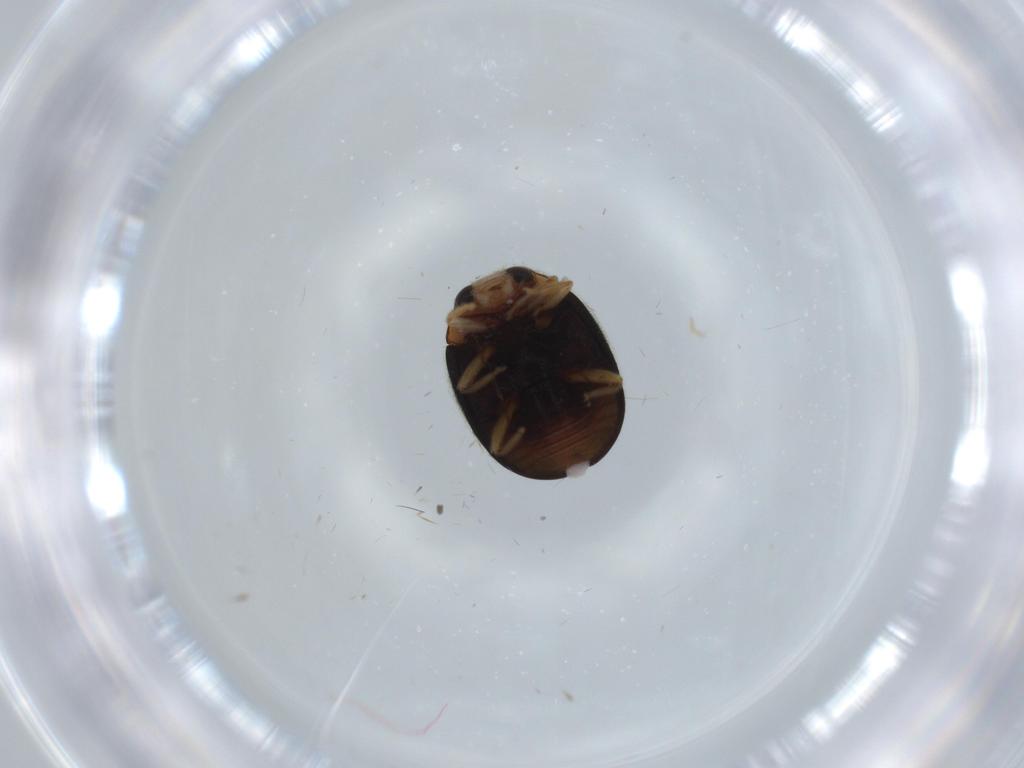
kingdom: Animalia
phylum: Arthropoda
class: Insecta
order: Coleoptera
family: Coccinellidae
